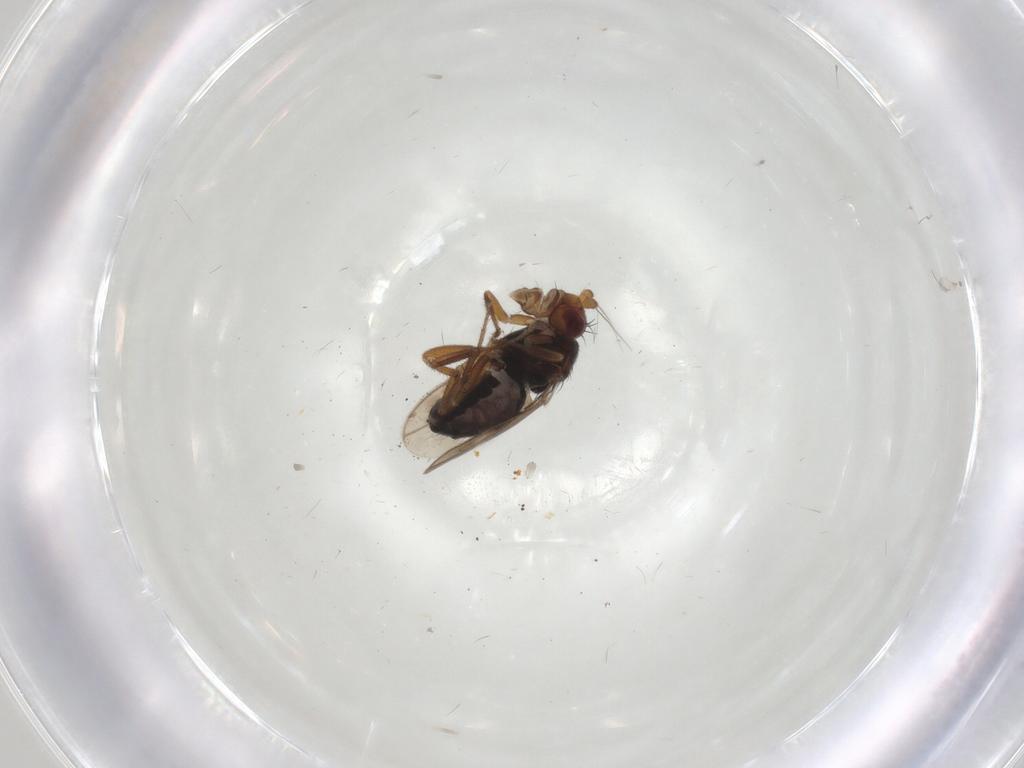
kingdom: Animalia
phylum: Arthropoda
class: Insecta
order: Diptera
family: Sphaeroceridae
